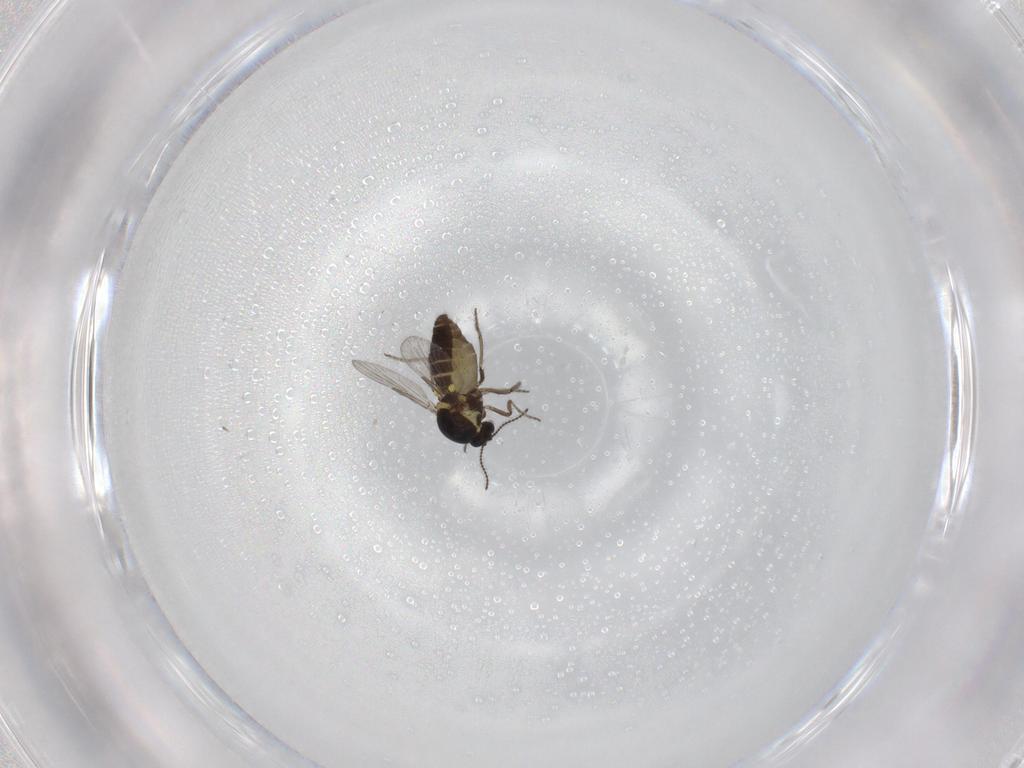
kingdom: Animalia
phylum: Arthropoda
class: Insecta
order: Diptera
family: Ceratopogonidae
